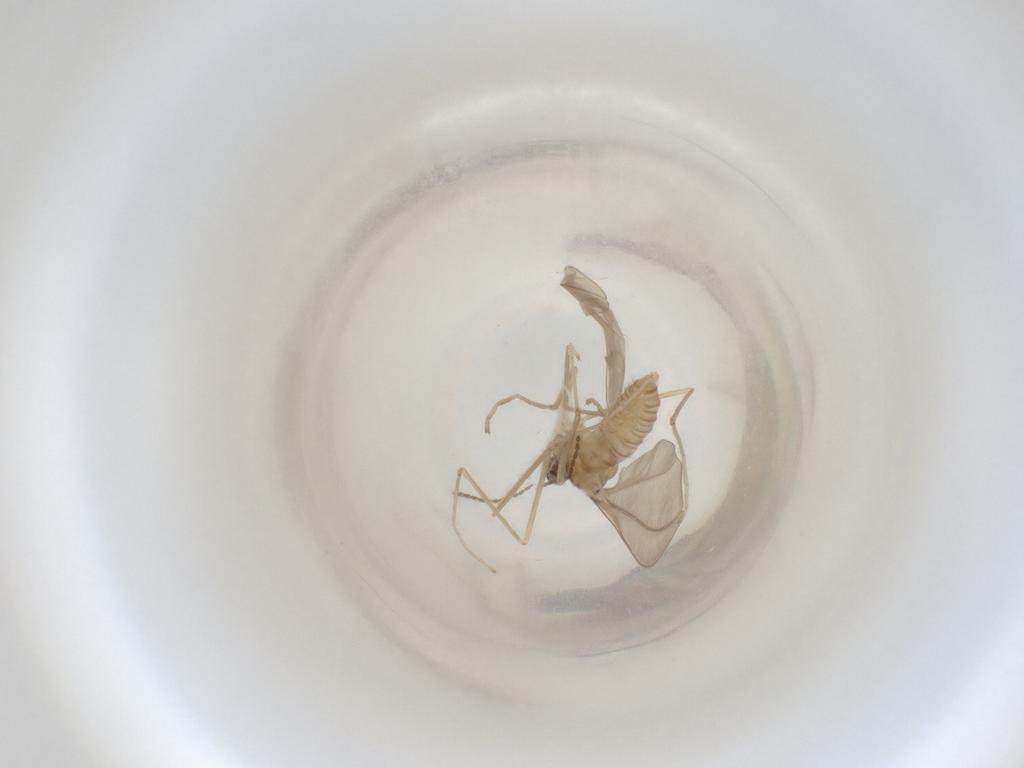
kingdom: Animalia
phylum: Arthropoda
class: Insecta
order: Diptera
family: Cecidomyiidae
